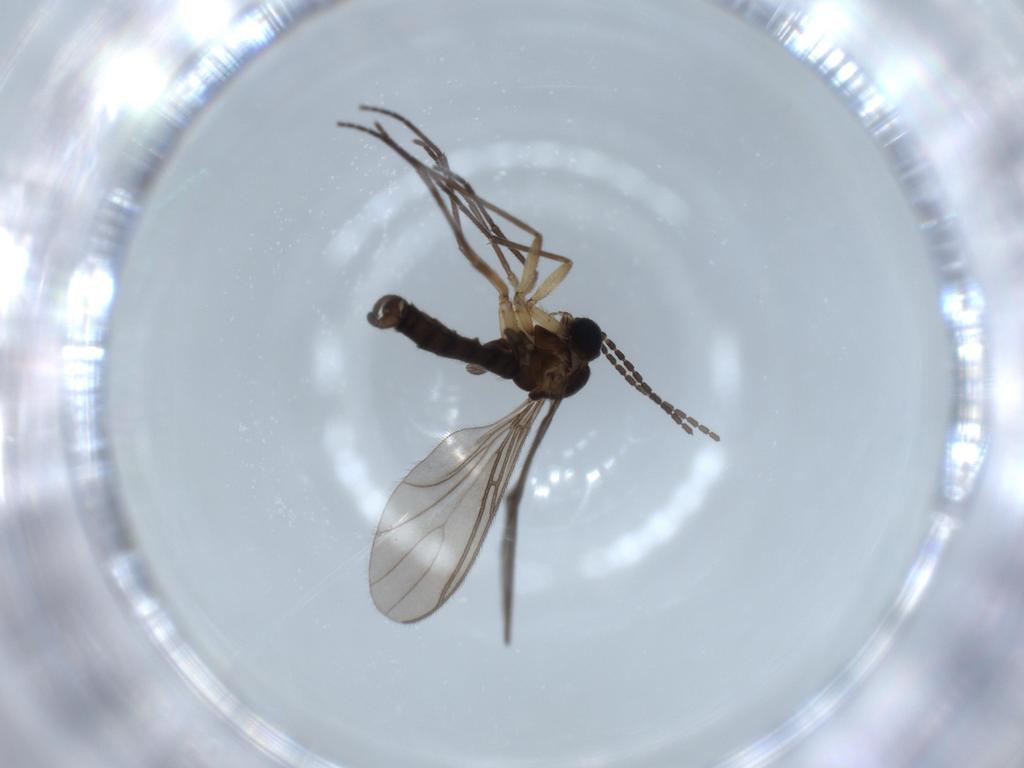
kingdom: Animalia
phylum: Arthropoda
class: Insecta
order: Diptera
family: Sciaridae
